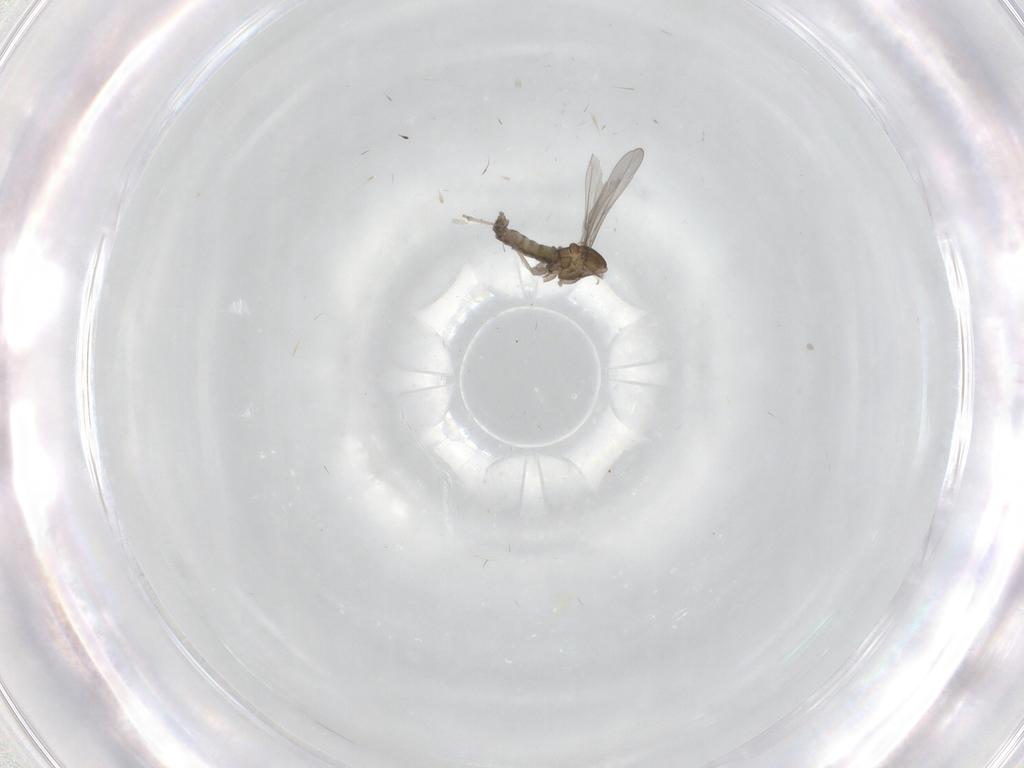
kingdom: Animalia
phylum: Arthropoda
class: Insecta
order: Diptera
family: Cecidomyiidae
